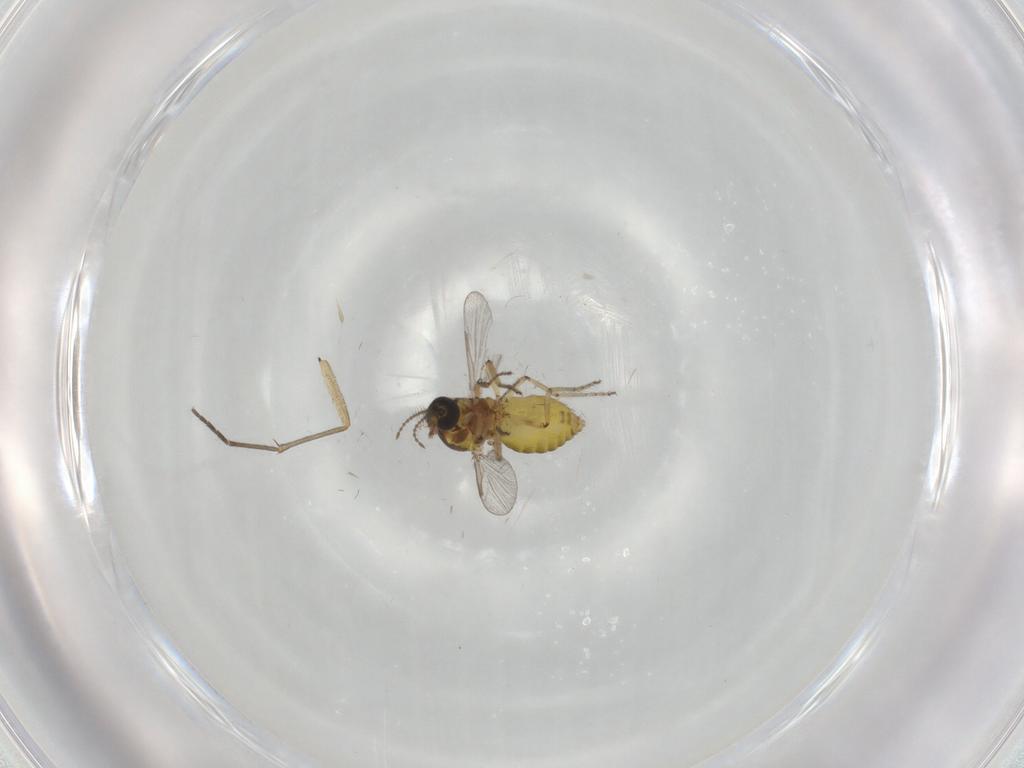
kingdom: Animalia
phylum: Arthropoda
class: Insecta
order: Diptera
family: Ceratopogonidae
